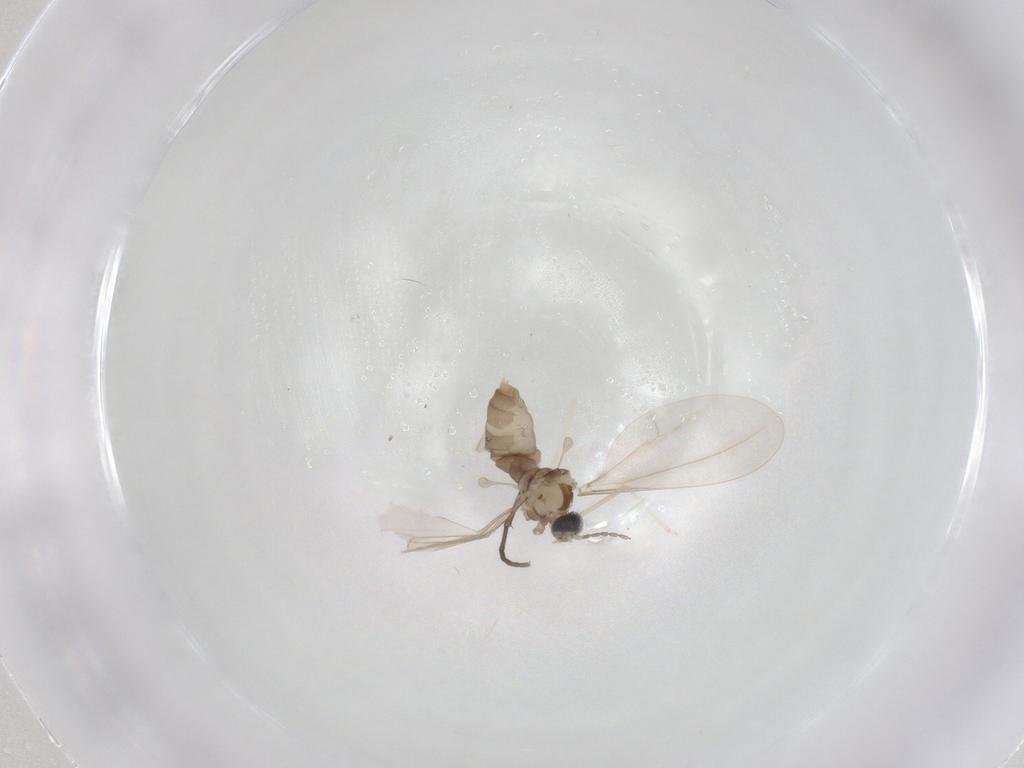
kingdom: Animalia
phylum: Arthropoda
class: Insecta
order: Diptera
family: Cecidomyiidae
